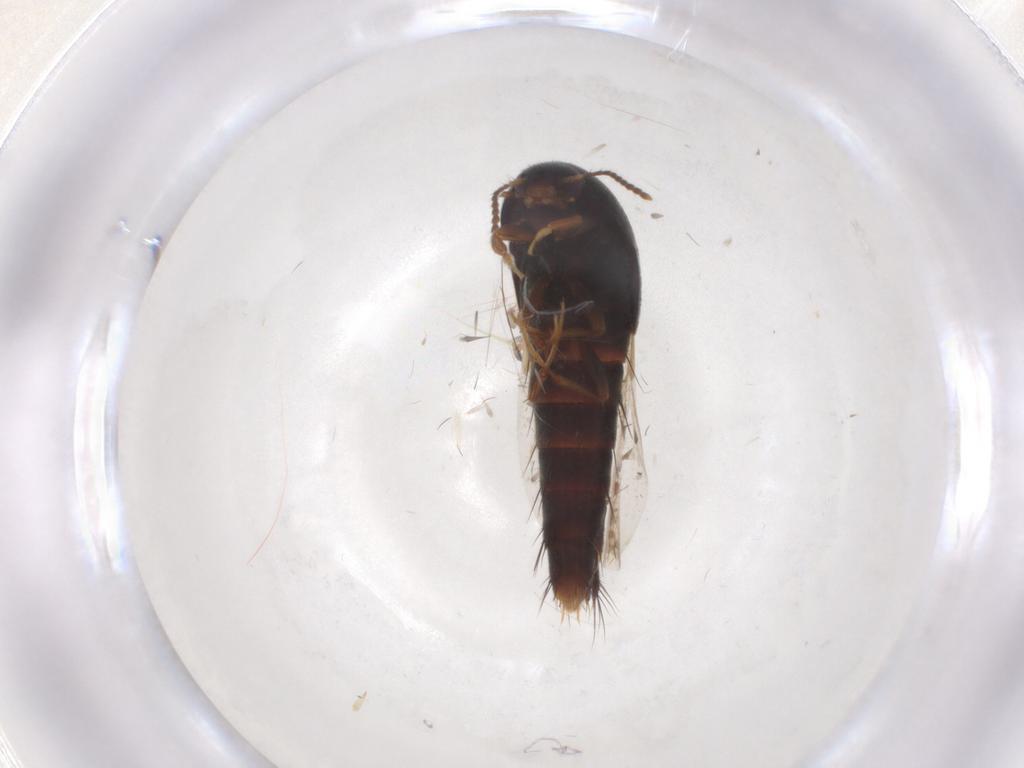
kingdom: Animalia
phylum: Arthropoda
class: Insecta
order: Coleoptera
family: Staphylinidae
